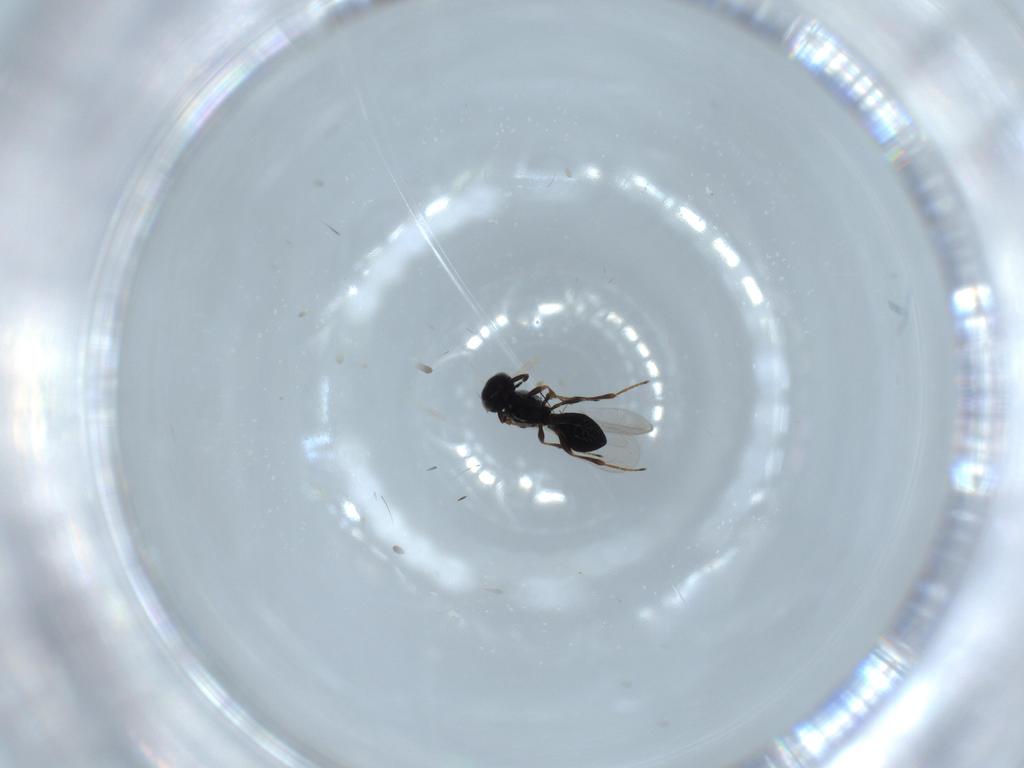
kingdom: Animalia
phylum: Arthropoda
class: Insecta
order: Hymenoptera
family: Platygastridae
